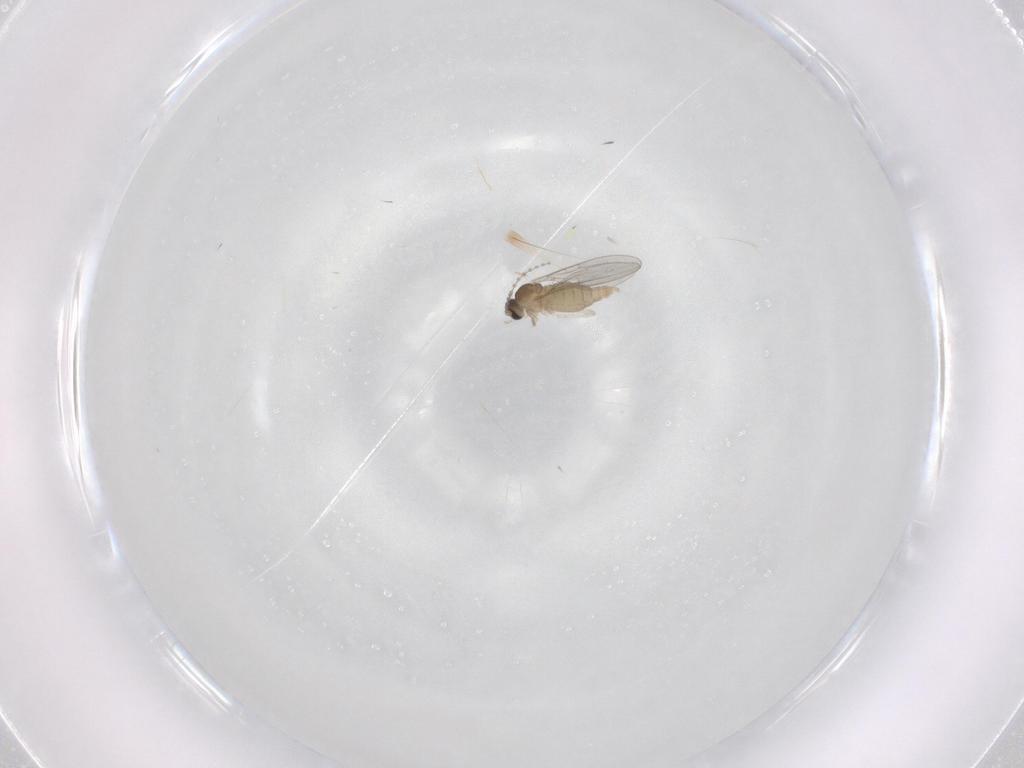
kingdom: Animalia
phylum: Arthropoda
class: Insecta
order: Diptera
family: Cecidomyiidae
